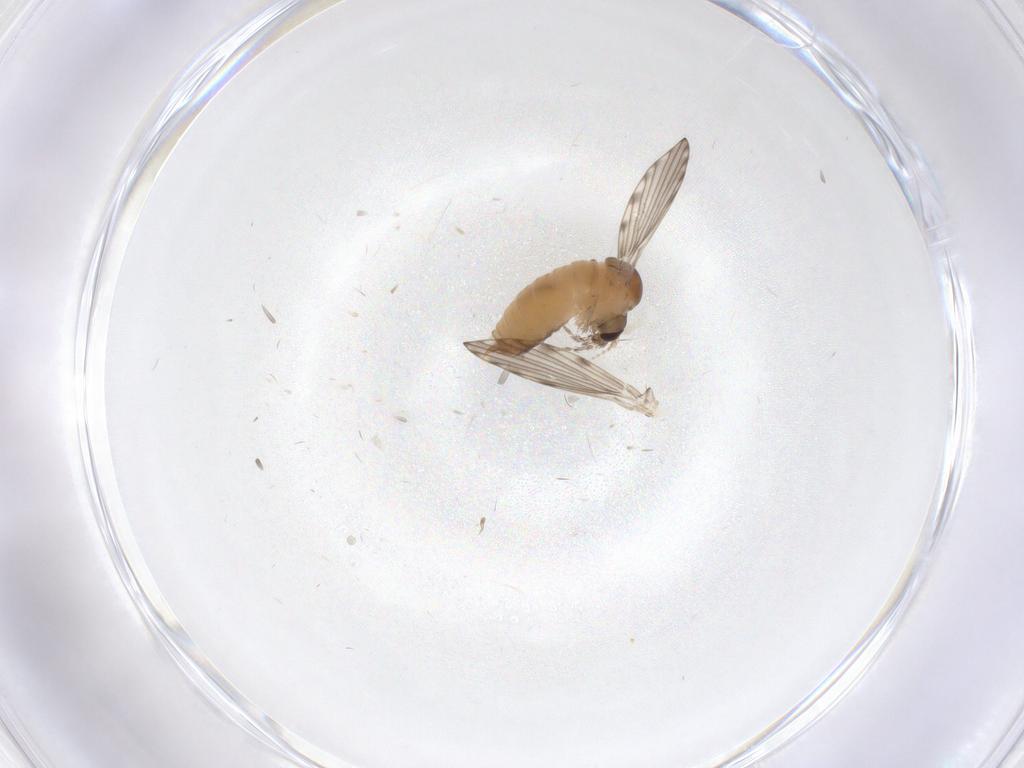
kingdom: Animalia
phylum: Arthropoda
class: Insecta
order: Diptera
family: Psychodidae
